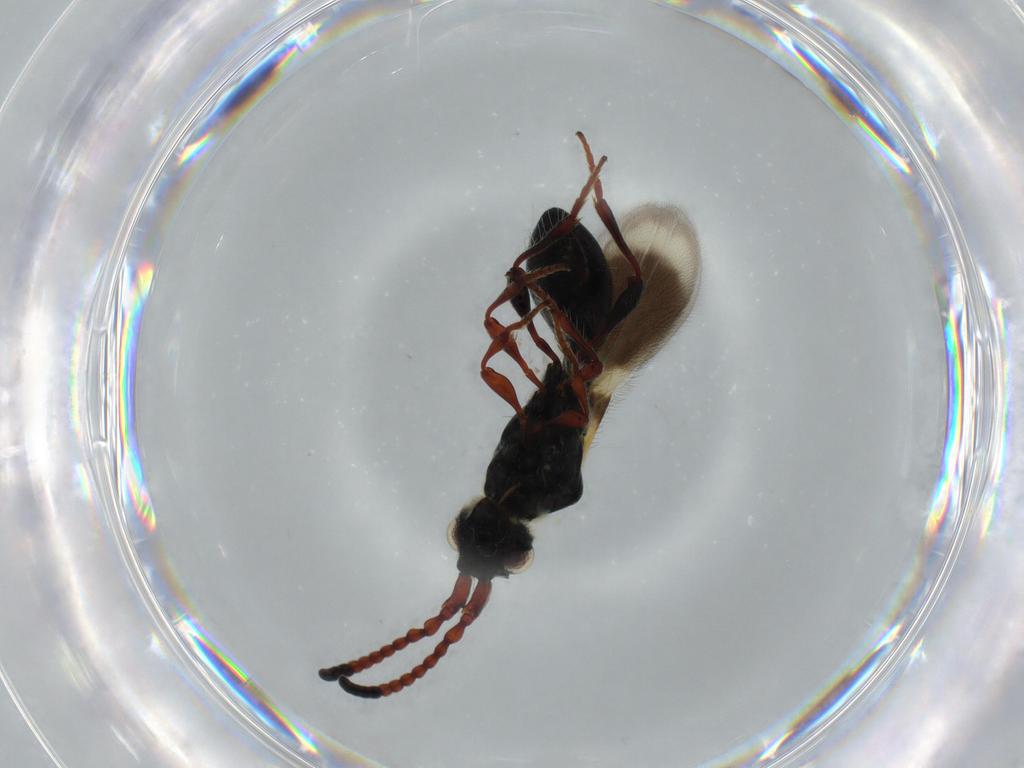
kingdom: Animalia
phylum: Arthropoda
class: Insecta
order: Hymenoptera
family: Diapriidae
